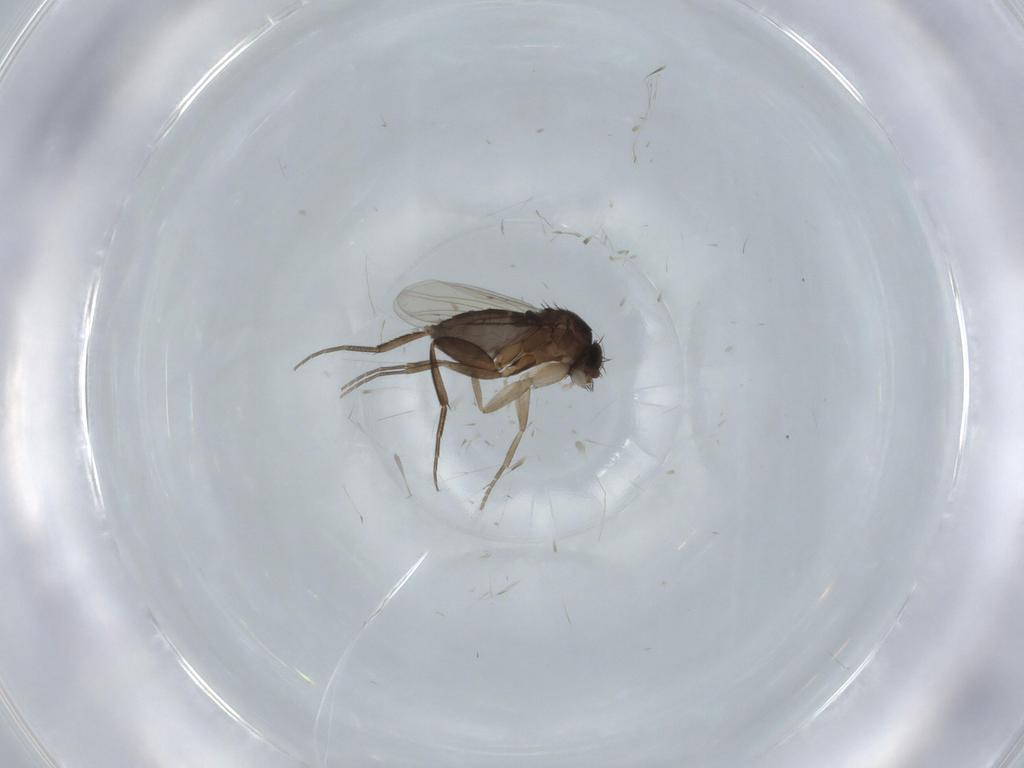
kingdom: Animalia
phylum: Arthropoda
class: Insecta
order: Diptera
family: Phoridae
